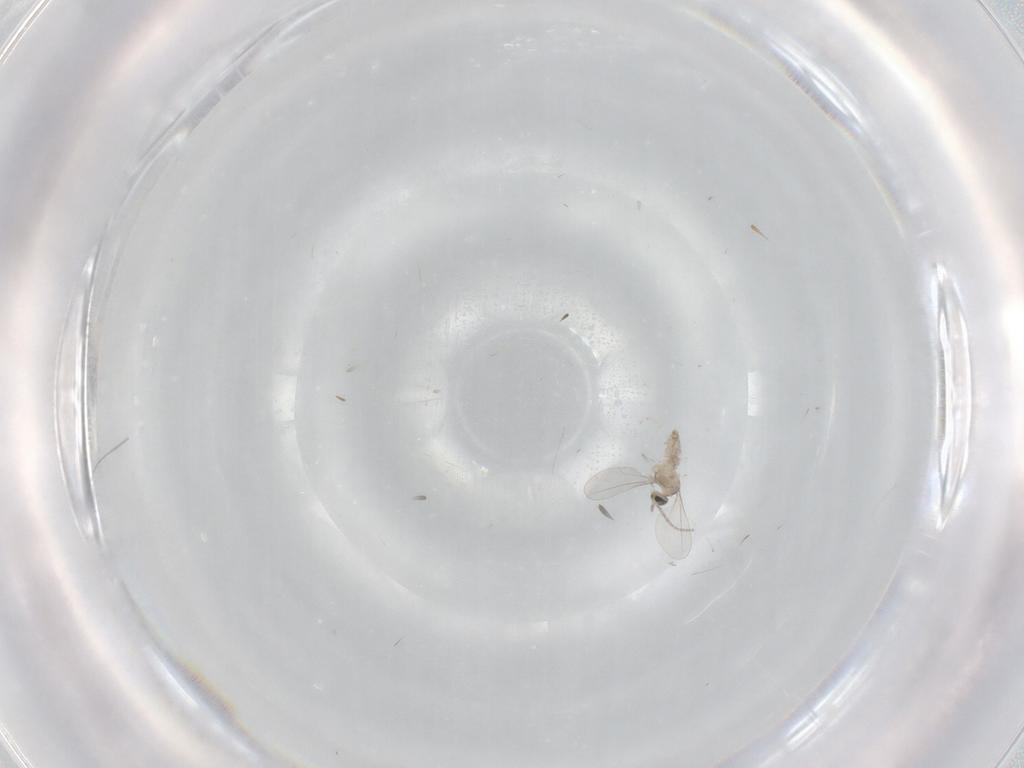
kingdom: Animalia
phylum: Arthropoda
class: Insecta
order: Diptera
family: Cecidomyiidae
